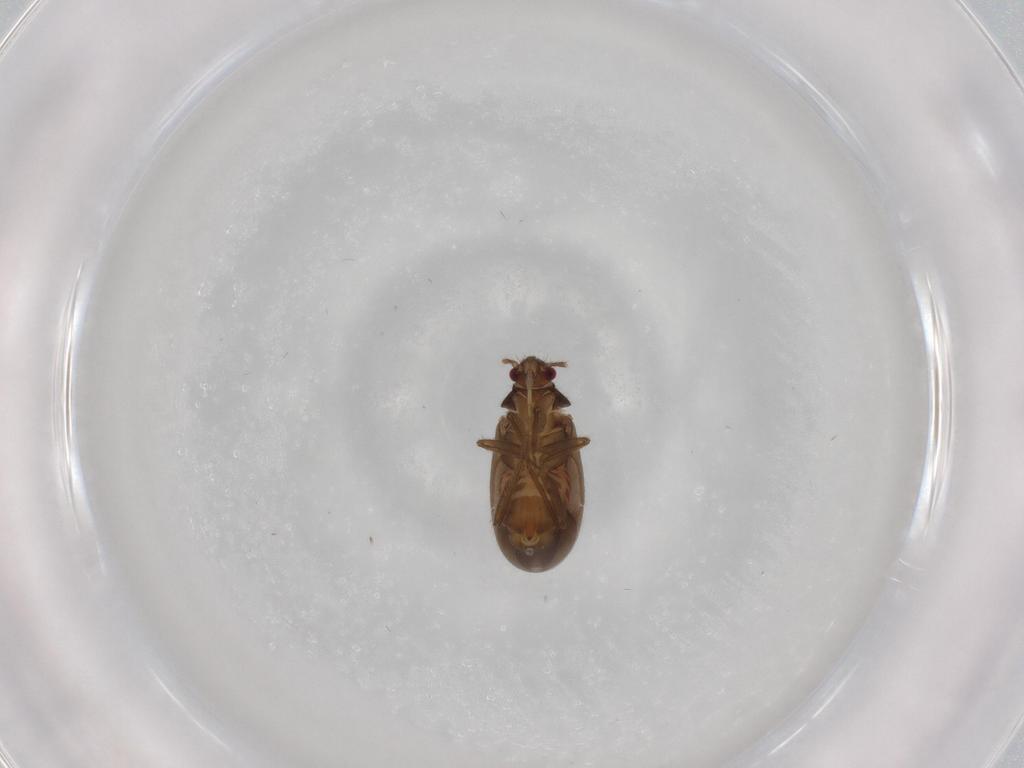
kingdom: Animalia
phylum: Arthropoda
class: Insecta
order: Hemiptera
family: Ceratocombidae
